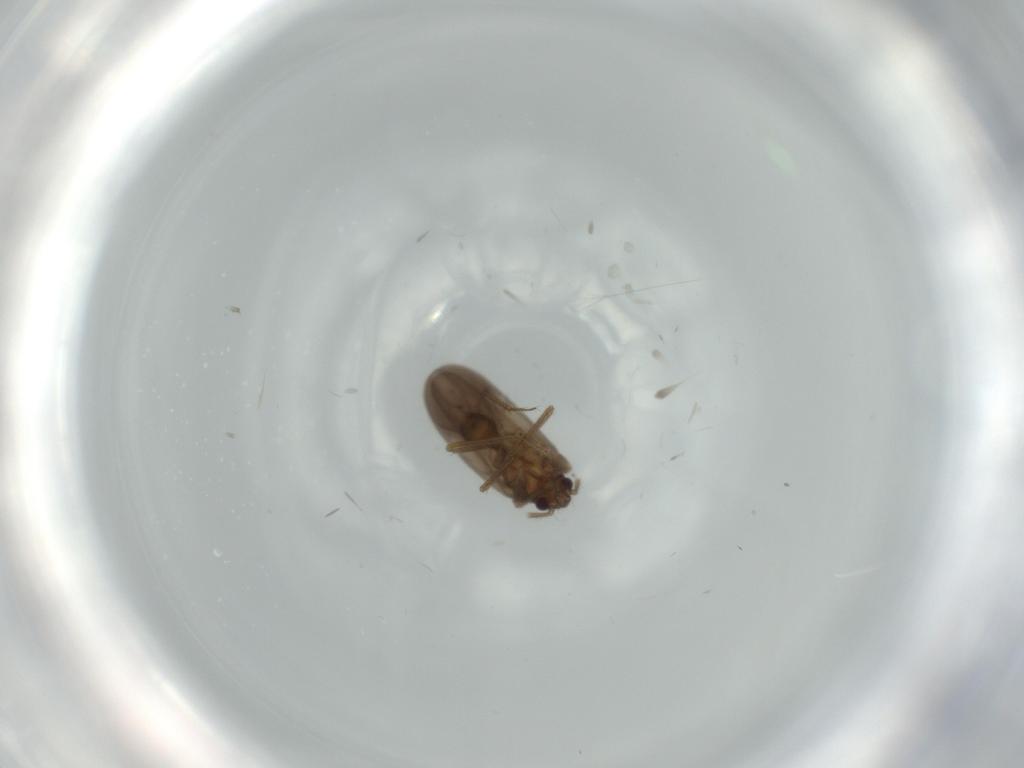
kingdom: Animalia
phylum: Arthropoda
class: Insecta
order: Hemiptera
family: Ceratocombidae
